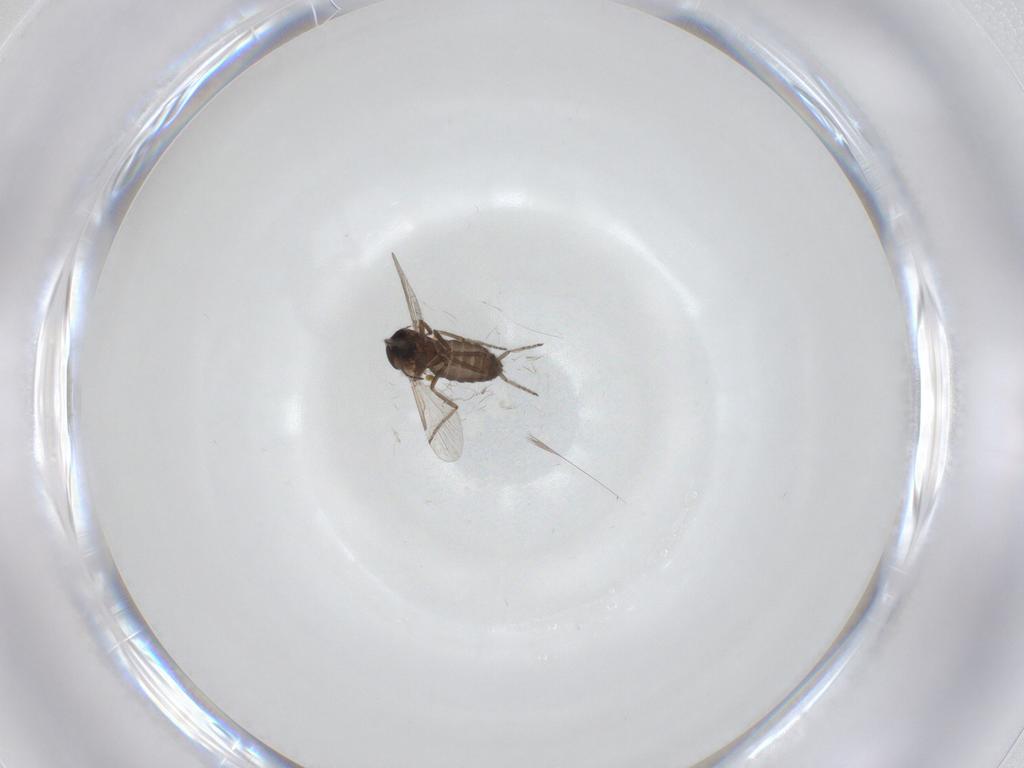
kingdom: Animalia
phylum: Arthropoda
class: Insecta
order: Diptera
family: Ceratopogonidae
